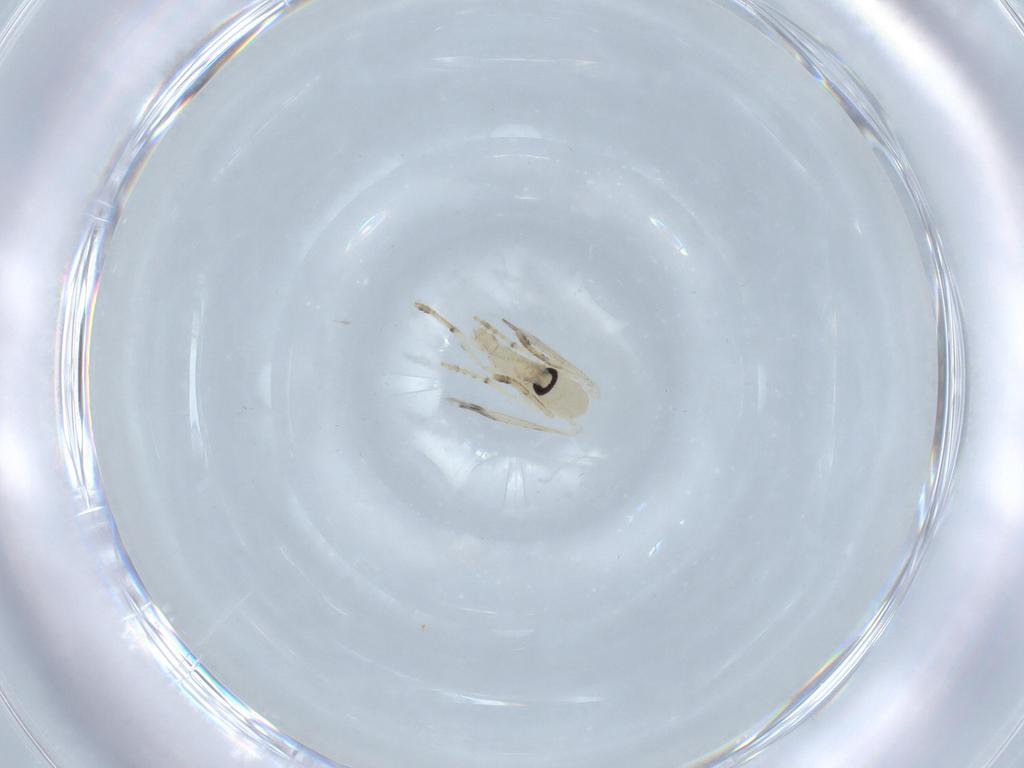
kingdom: Animalia
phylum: Arthropoda
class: Insecta
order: Diptera
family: Psychodidae
